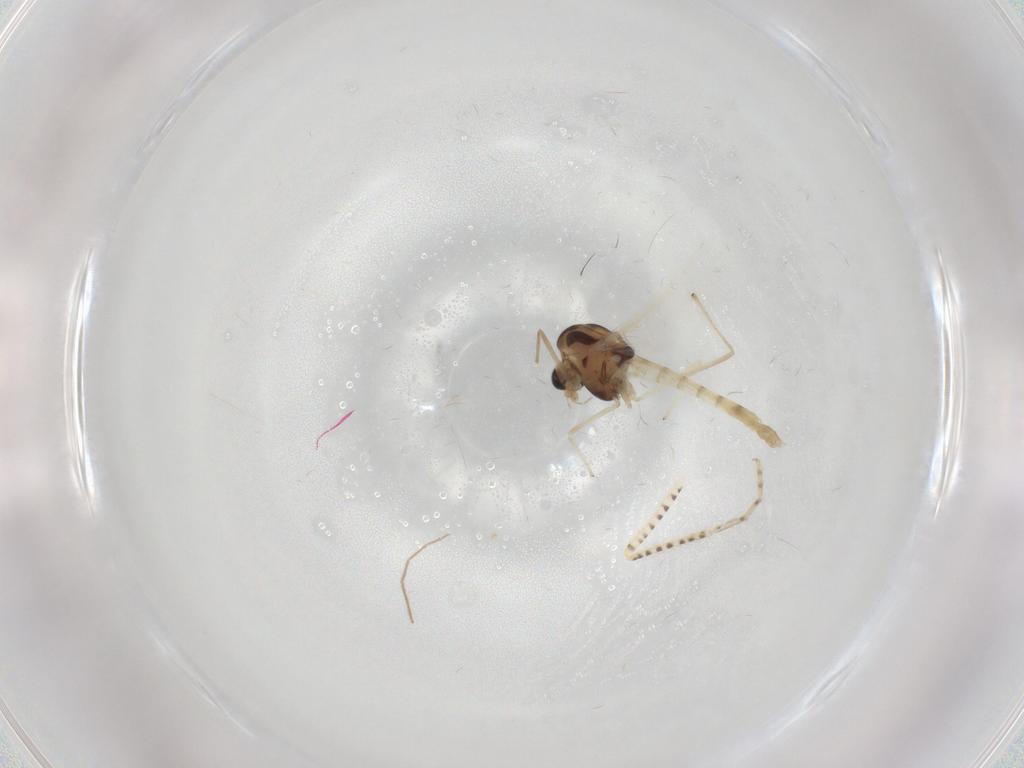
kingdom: Animalia
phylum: Arthropoda
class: Insecta
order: Diptera
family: Chironomidae
